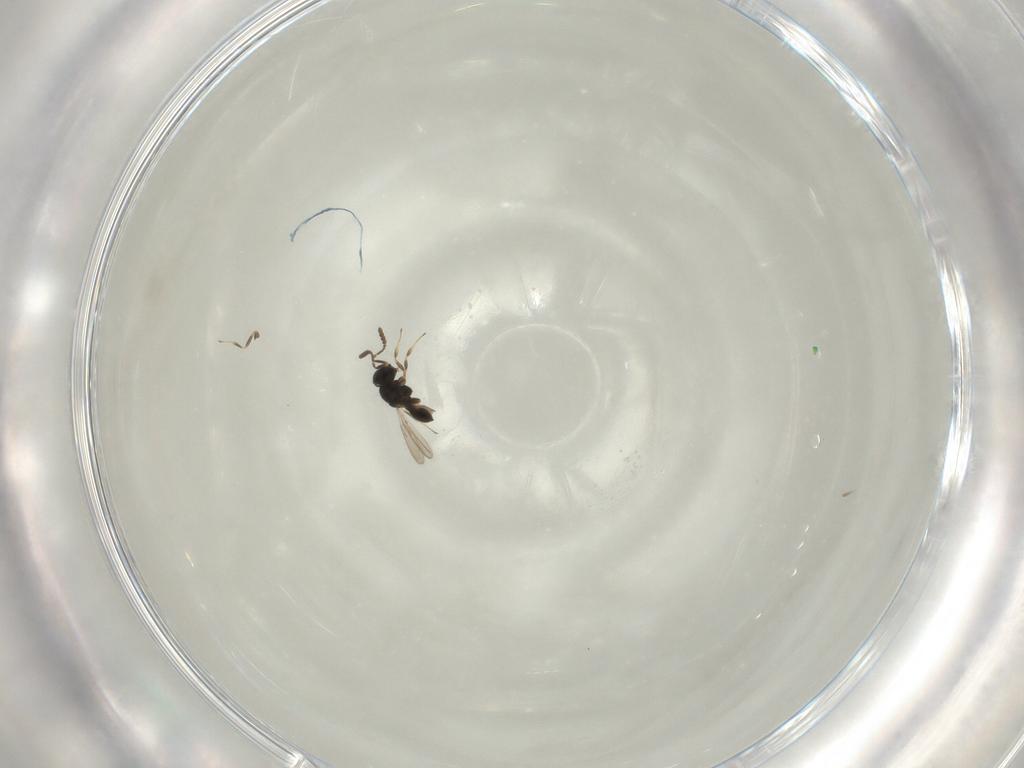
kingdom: Animalia
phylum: Arthropoda
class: Insecta
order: Hymenoptera
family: Scelionidae
